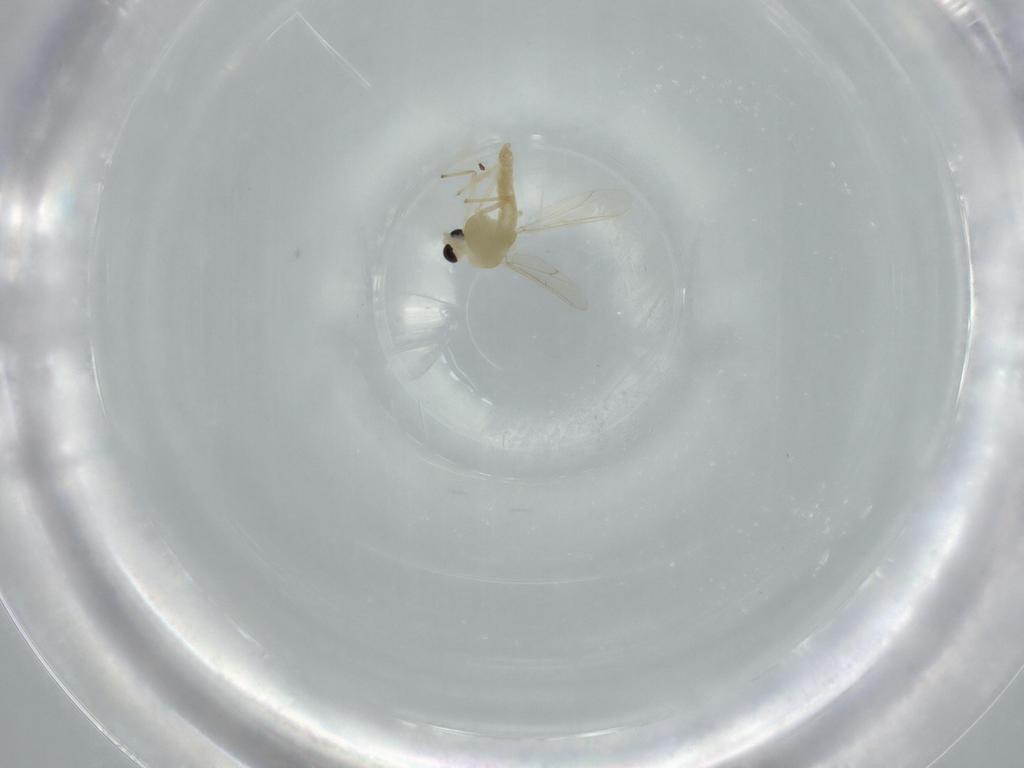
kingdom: Animalia
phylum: Arthropoda
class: Insecta
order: Diptera
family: Chironomidae
